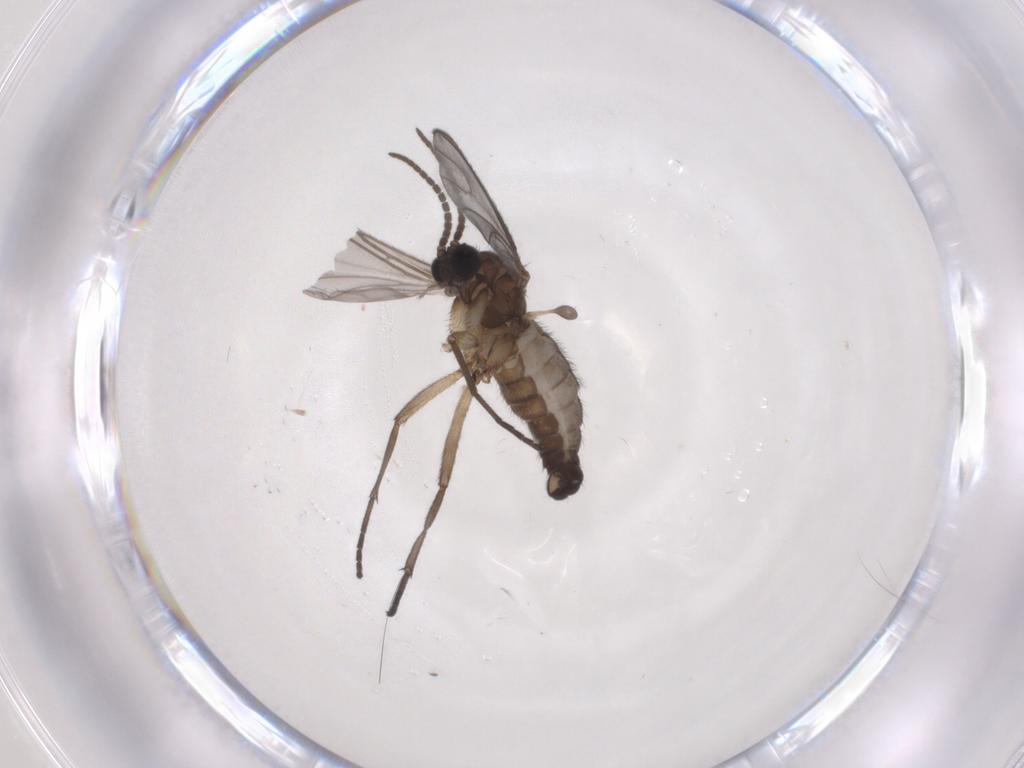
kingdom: Animalia
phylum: Arthropoda
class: Insecta
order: Diptera
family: Sciaridae
